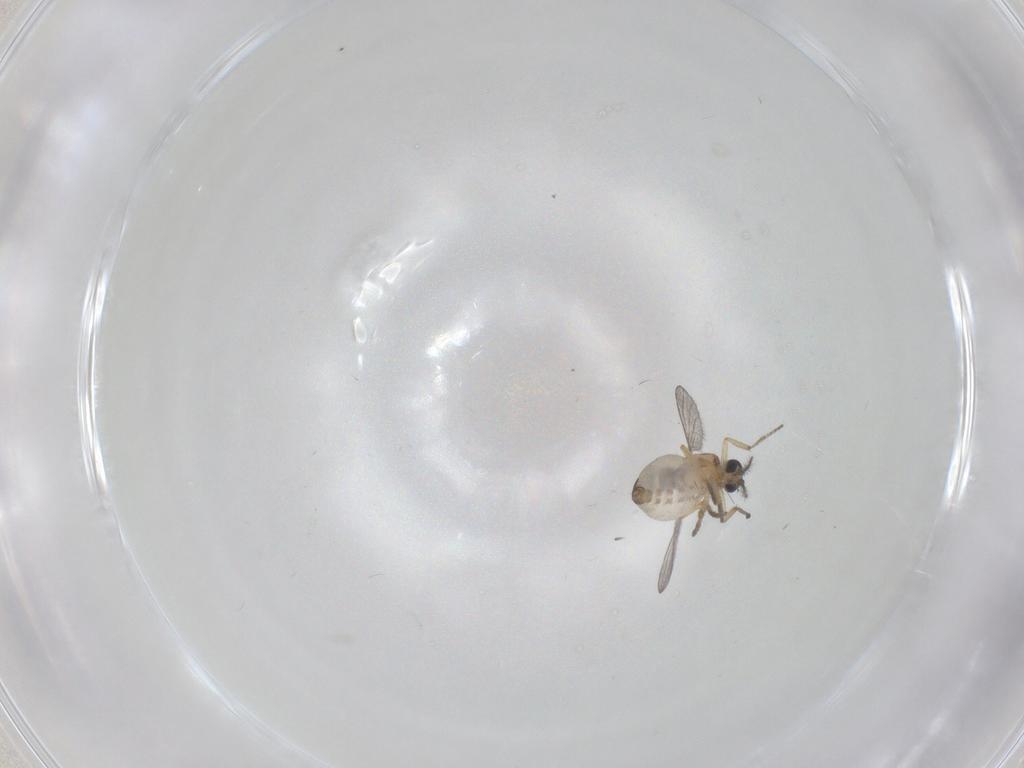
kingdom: Animalia
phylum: Arthropoda
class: Insecta
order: Diptera
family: Ceratopogonidae
